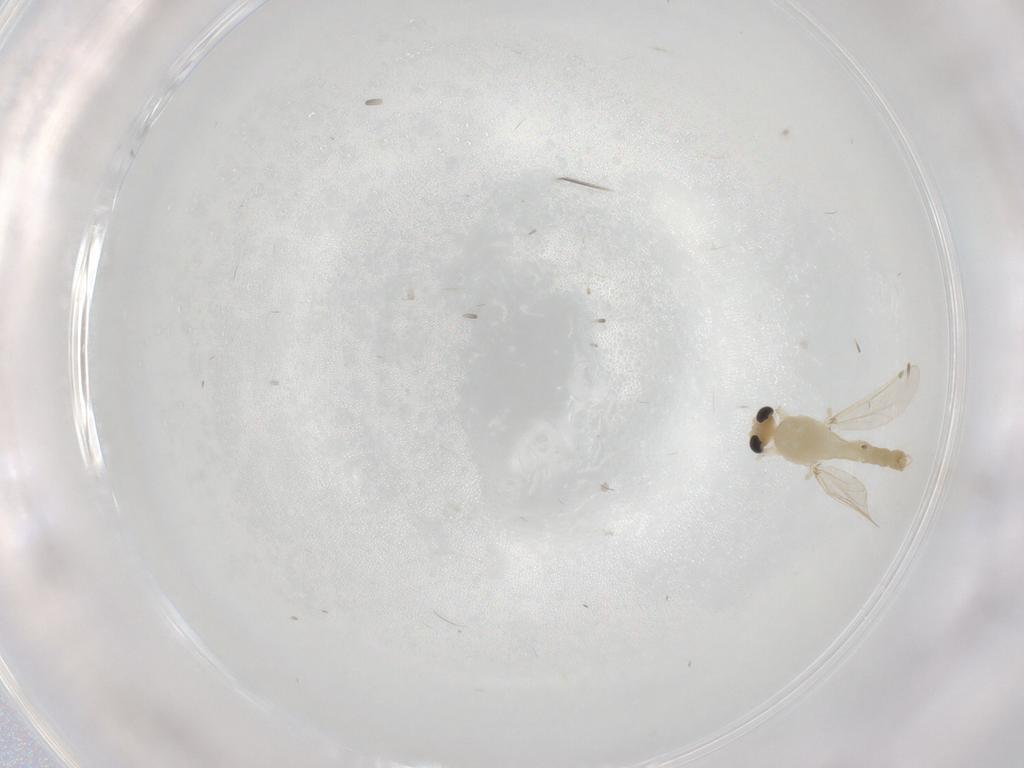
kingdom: Animalia
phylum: Arthropoda
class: Insecta
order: Diptera
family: Chironomidae
